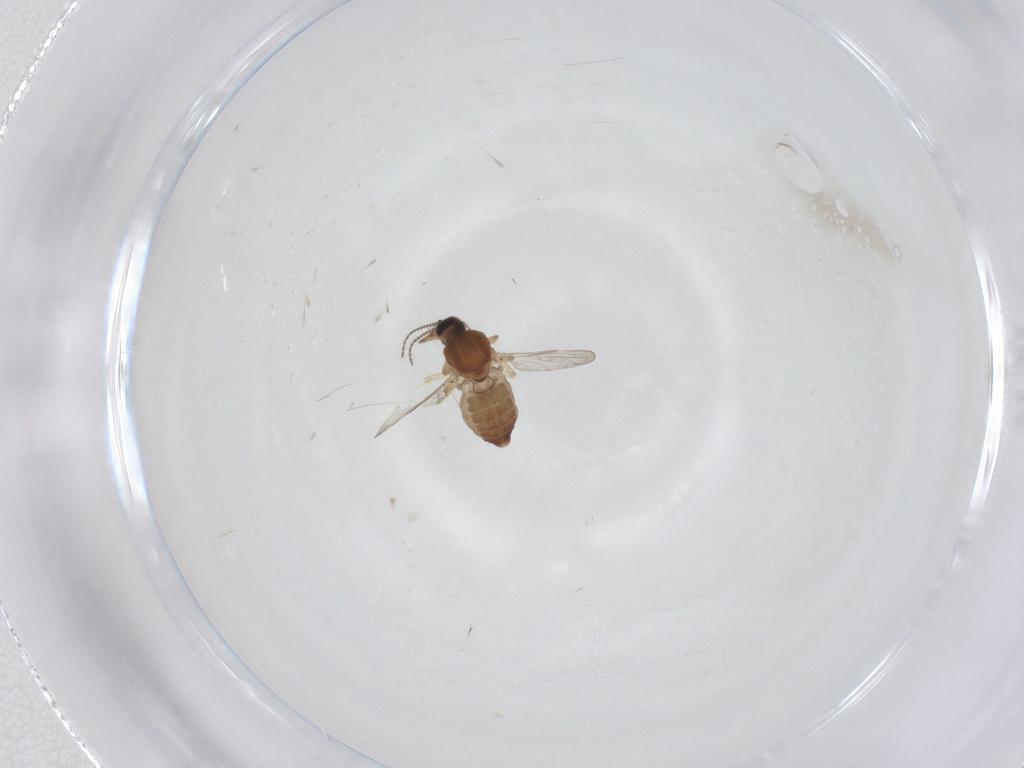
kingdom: Animalia
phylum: Arthropoda
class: Insecta
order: Diptera
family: Ceratopogonidae
